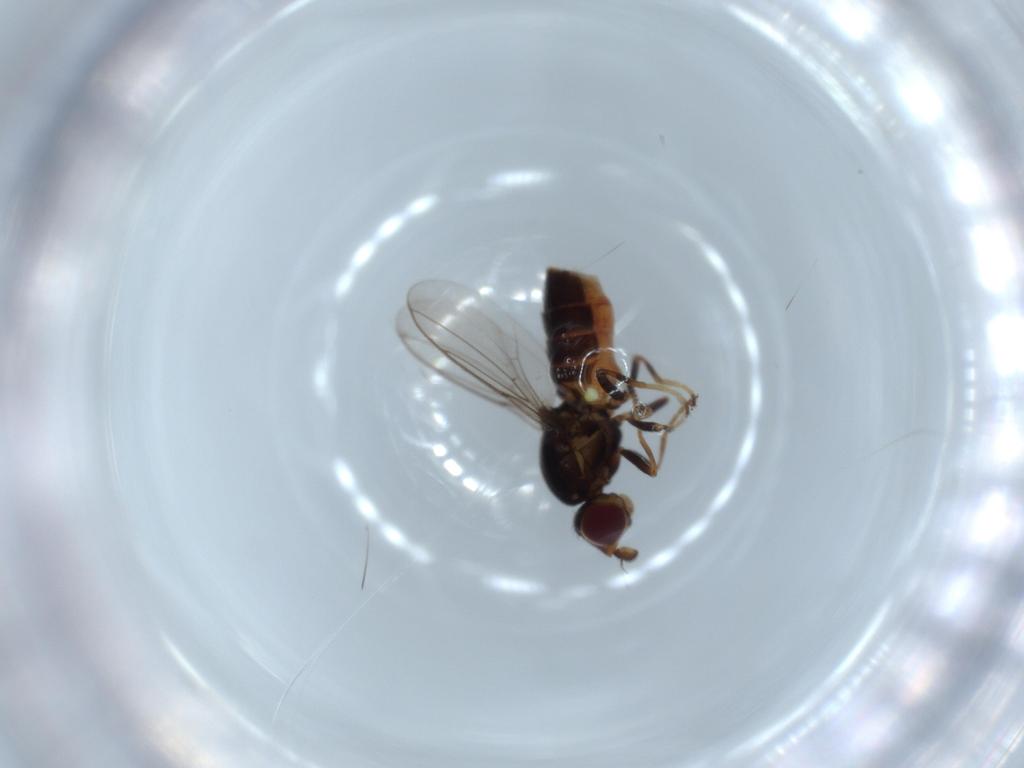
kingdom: Animalia
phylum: Arthropoda
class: Insecta
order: Diptera
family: Chloropidae
